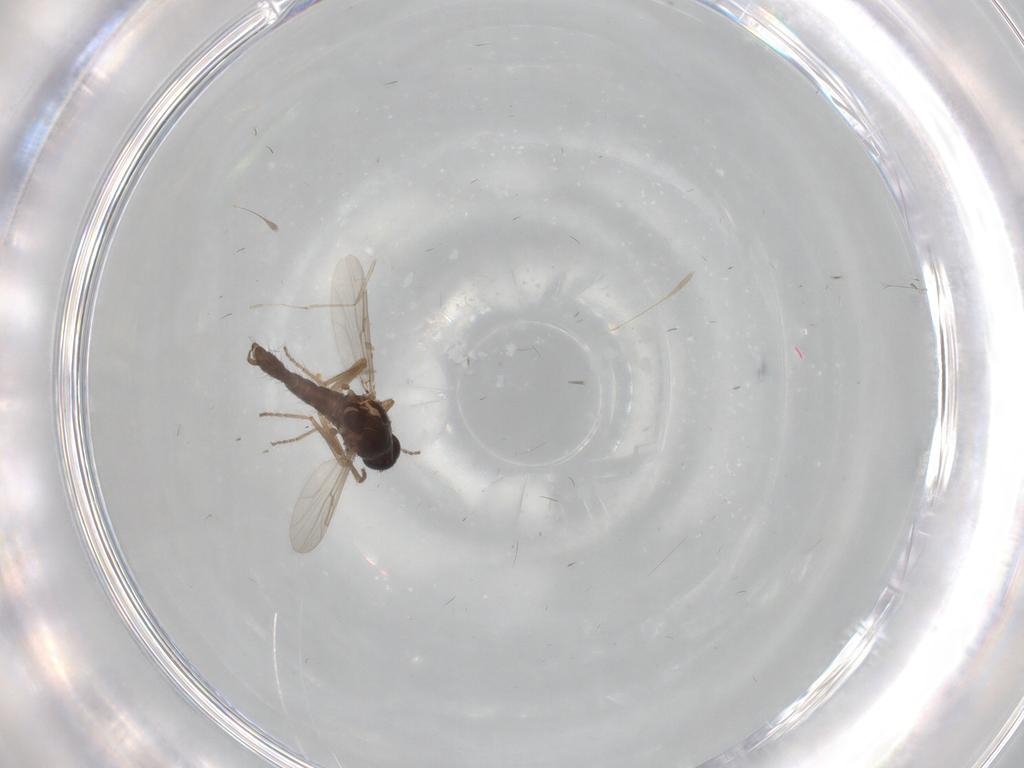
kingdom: Animalia
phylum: Arthropoda
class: Insecta
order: Diptera
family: Ceratopogonidae
